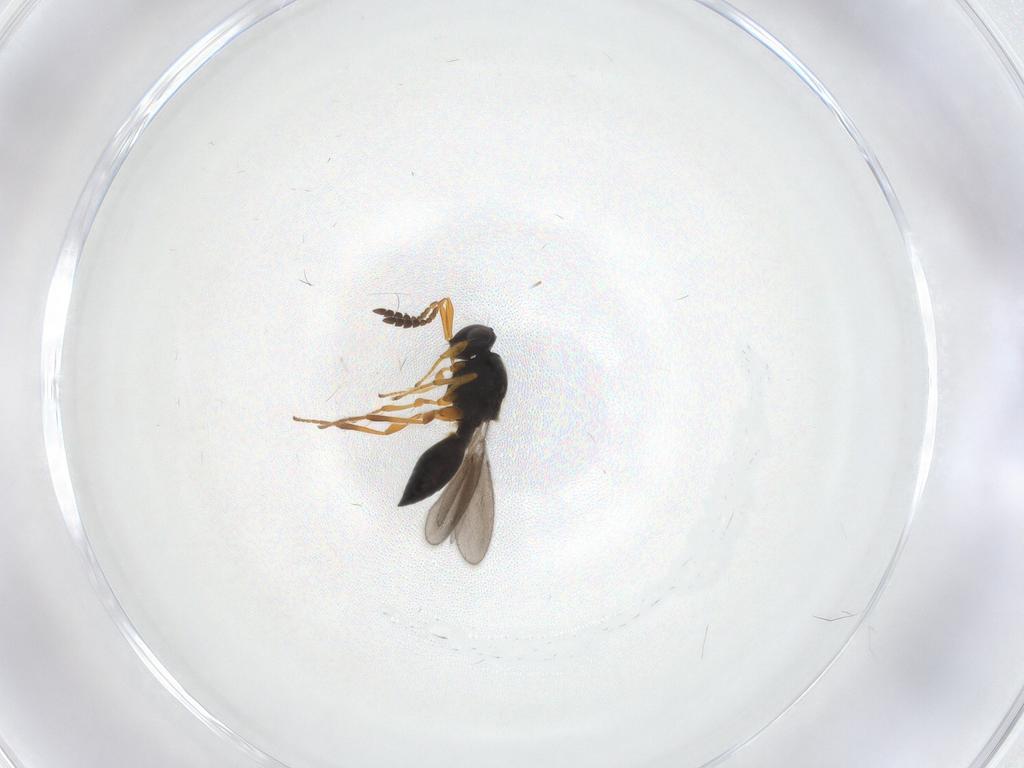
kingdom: Animalia
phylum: Arthropoda
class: Insecta
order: Hymenoptera
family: Platygastridae
